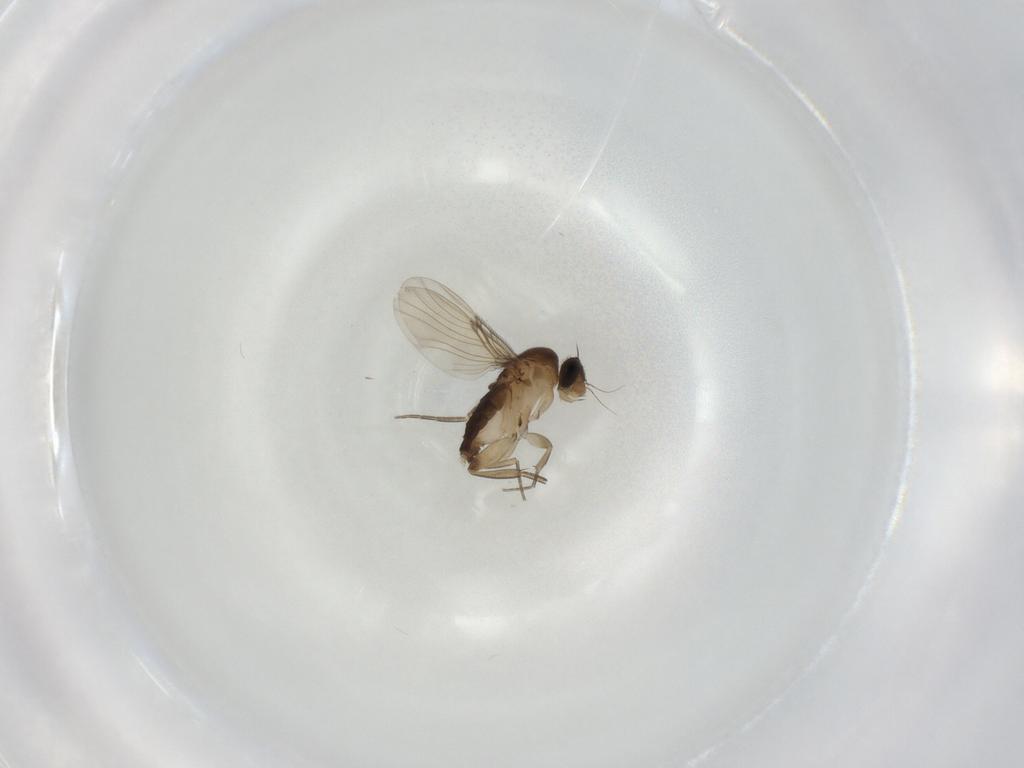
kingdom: Animalia
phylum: Arthropoda
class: Insecta
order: Diptera
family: Phoridae
